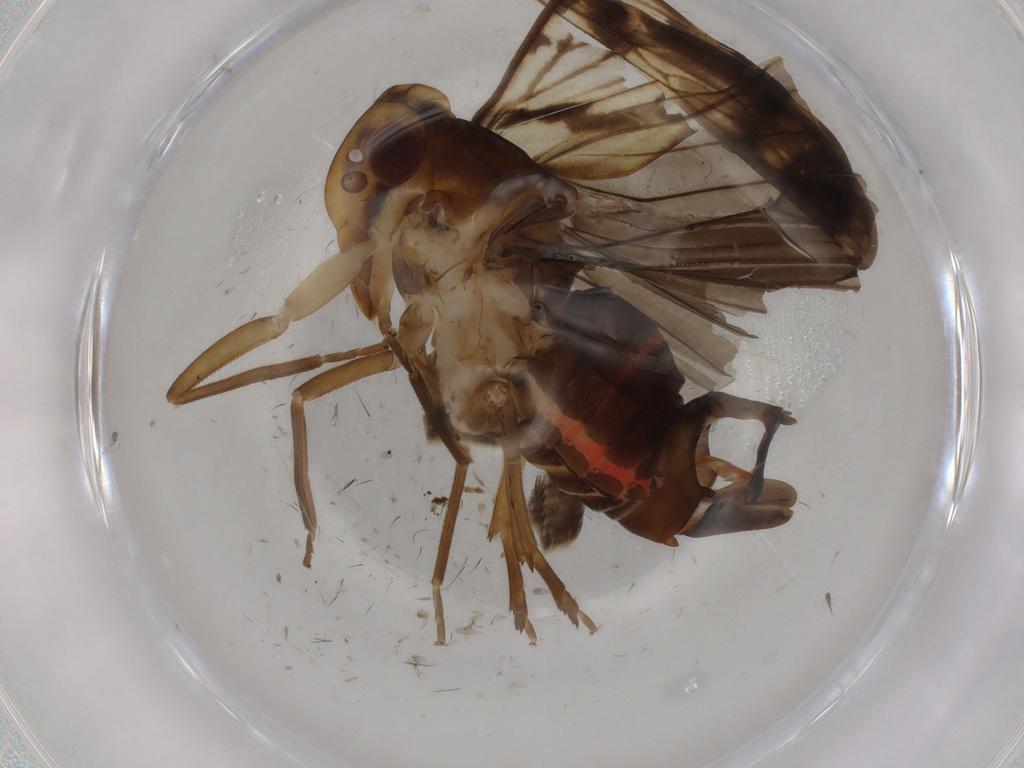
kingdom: Animalia
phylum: Arthropoda
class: Insecta
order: Hemiptera
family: Cixiidae
